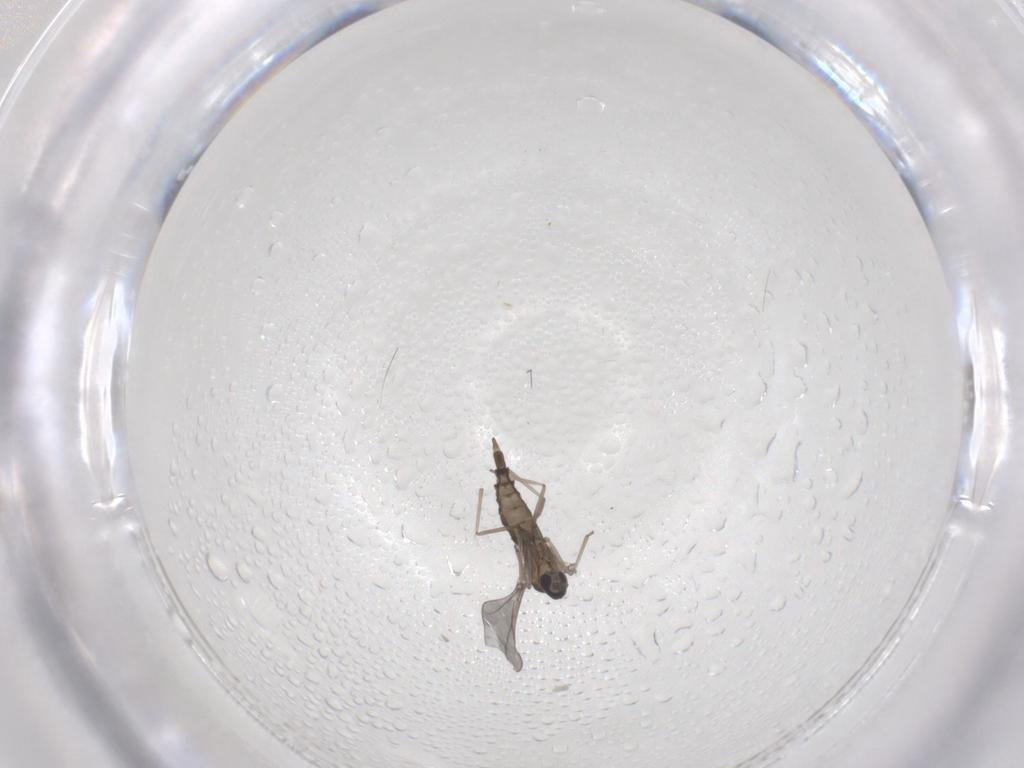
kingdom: Animalia
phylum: Arthropoda
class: Insecta
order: Diptera
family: Cecidomyiidae
